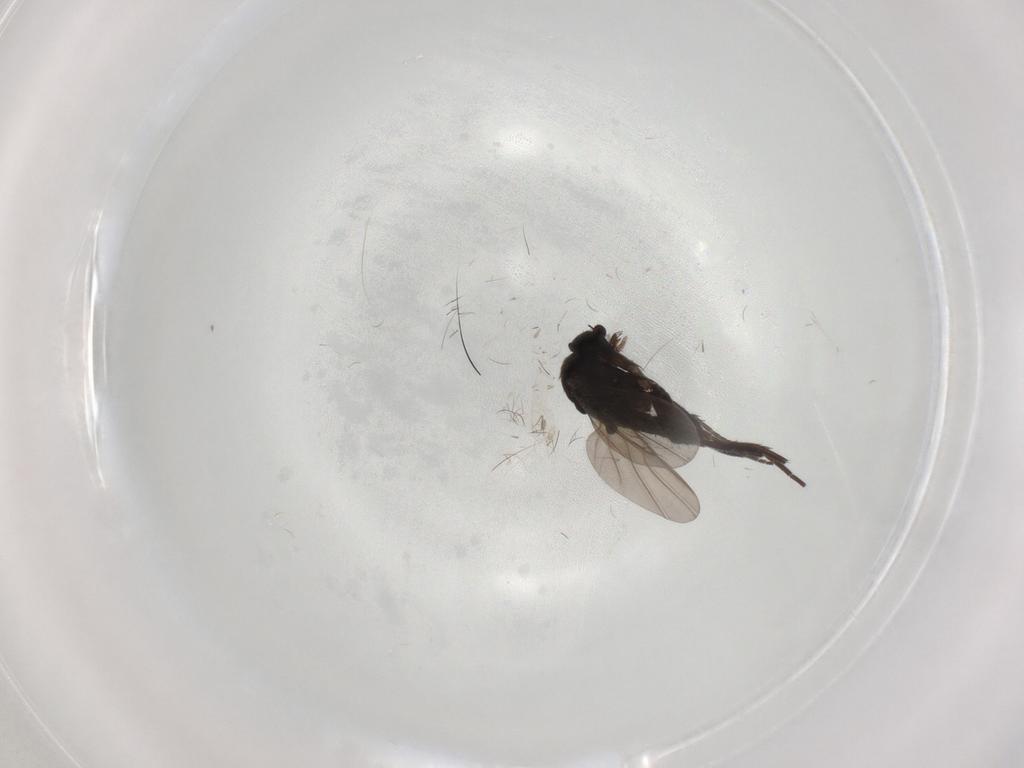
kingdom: Animalia
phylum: Arthropoda
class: Insecta
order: Diptera
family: Phoridae
